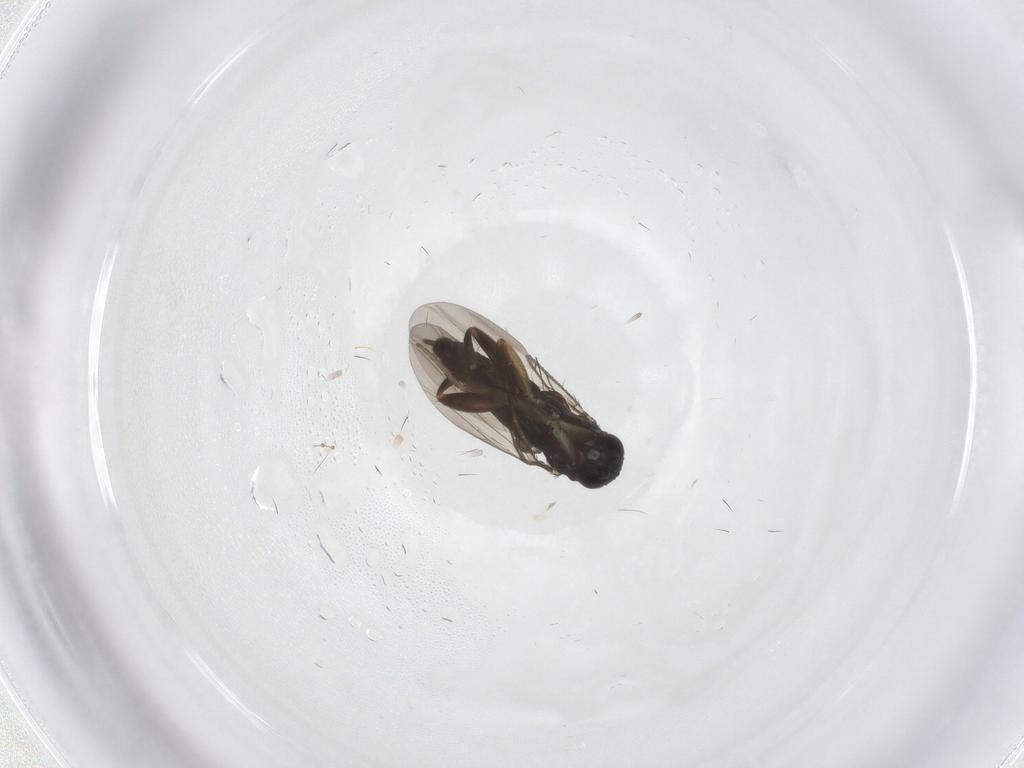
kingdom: Animalia
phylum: Arthropoda
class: Insecta
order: Diptera
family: Phoridae
